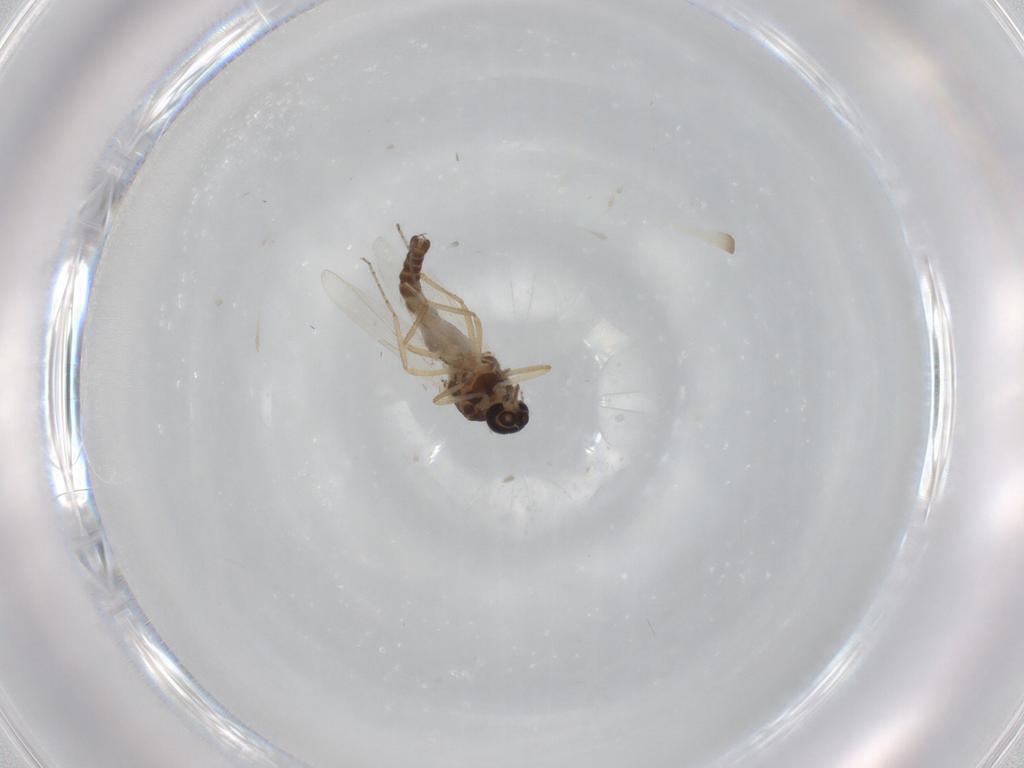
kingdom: Animalia
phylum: Arthropoda
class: Insecta
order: Diptera
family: Ceratopogonidae
